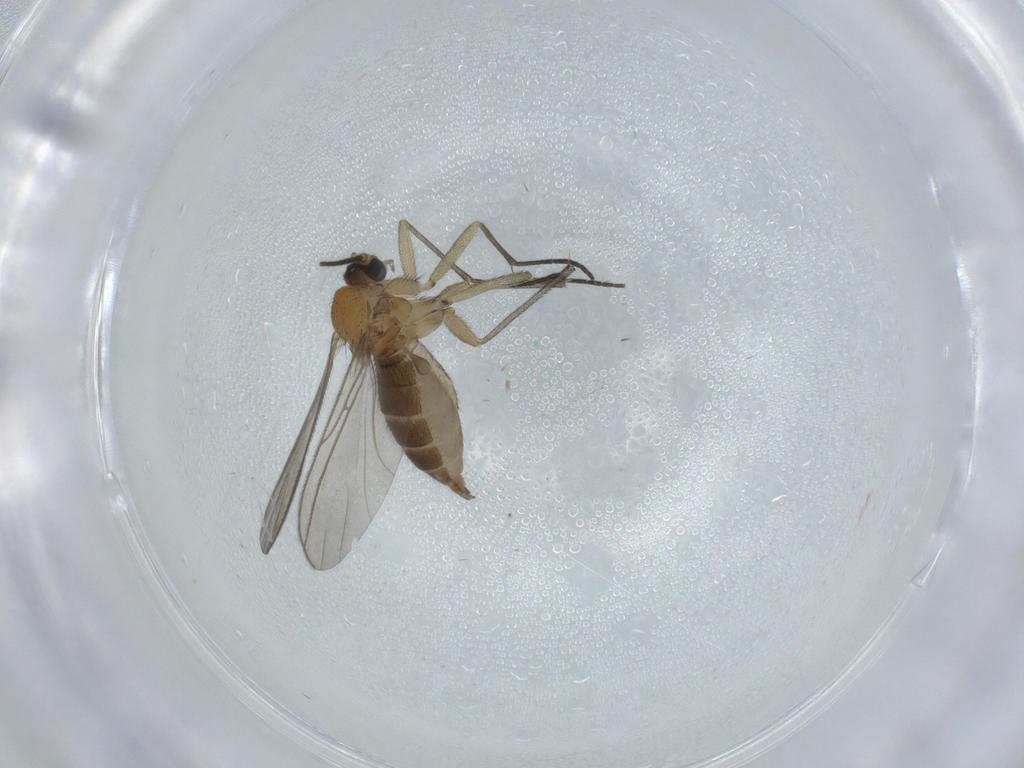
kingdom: Animalia
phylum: Arthropoda
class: Insecta
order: Diptera
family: Sciaridae
